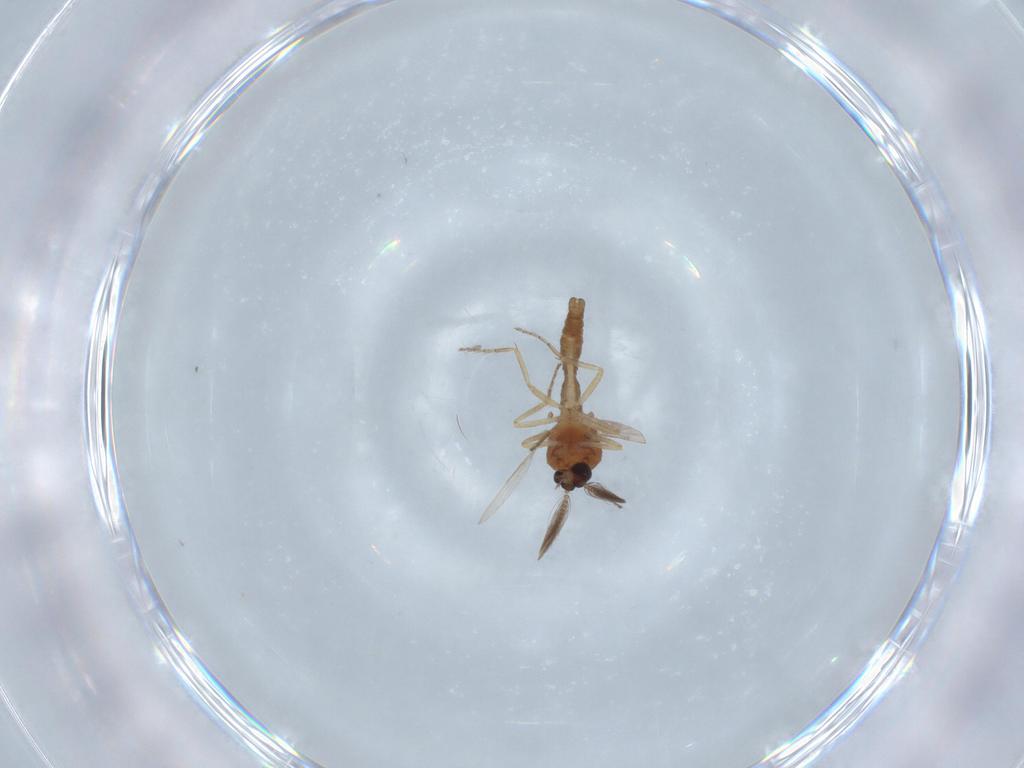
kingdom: Animalia
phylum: Arthropoda
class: Insecta
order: Diptera
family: Ceratopogonidae
